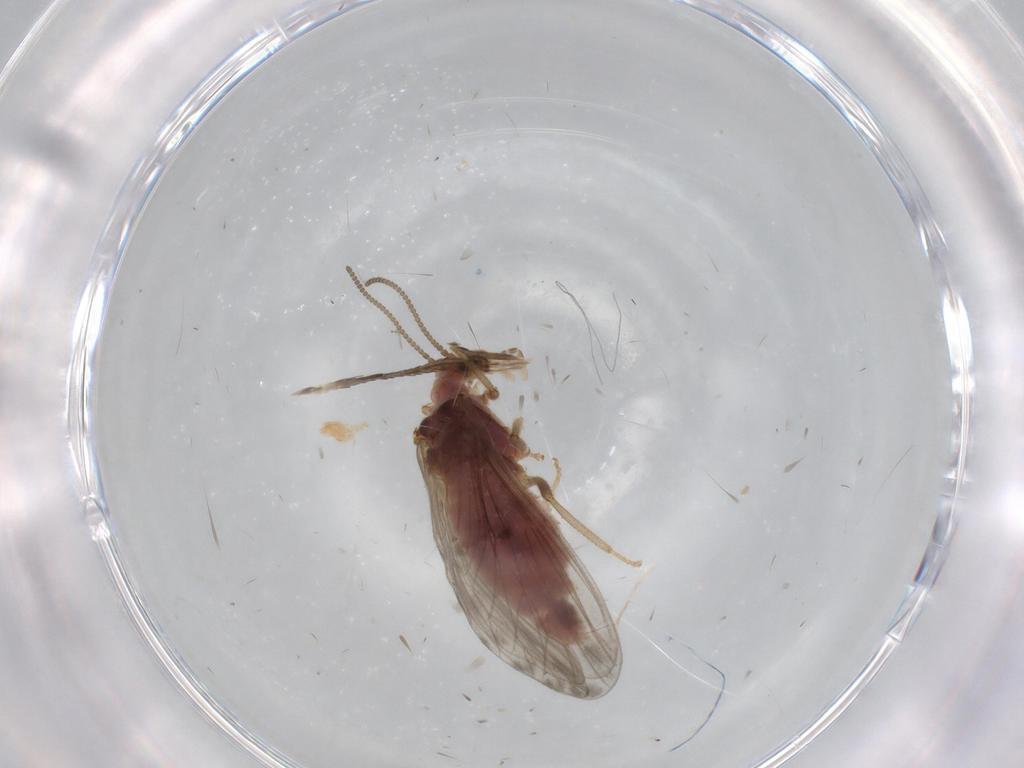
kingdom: Animalia
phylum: Arthropoda
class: Insecta
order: Neuroptera
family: Coniopterygidae
